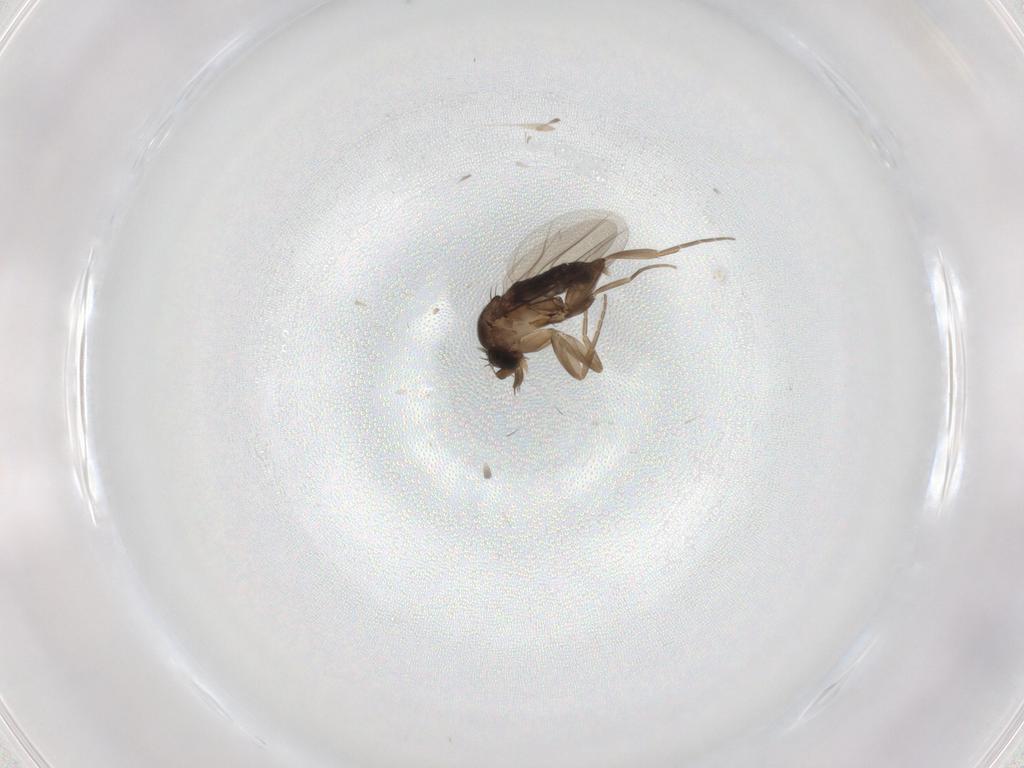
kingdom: Animalia
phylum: Arthropoda
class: Insecta
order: Diptera
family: Phoridae
